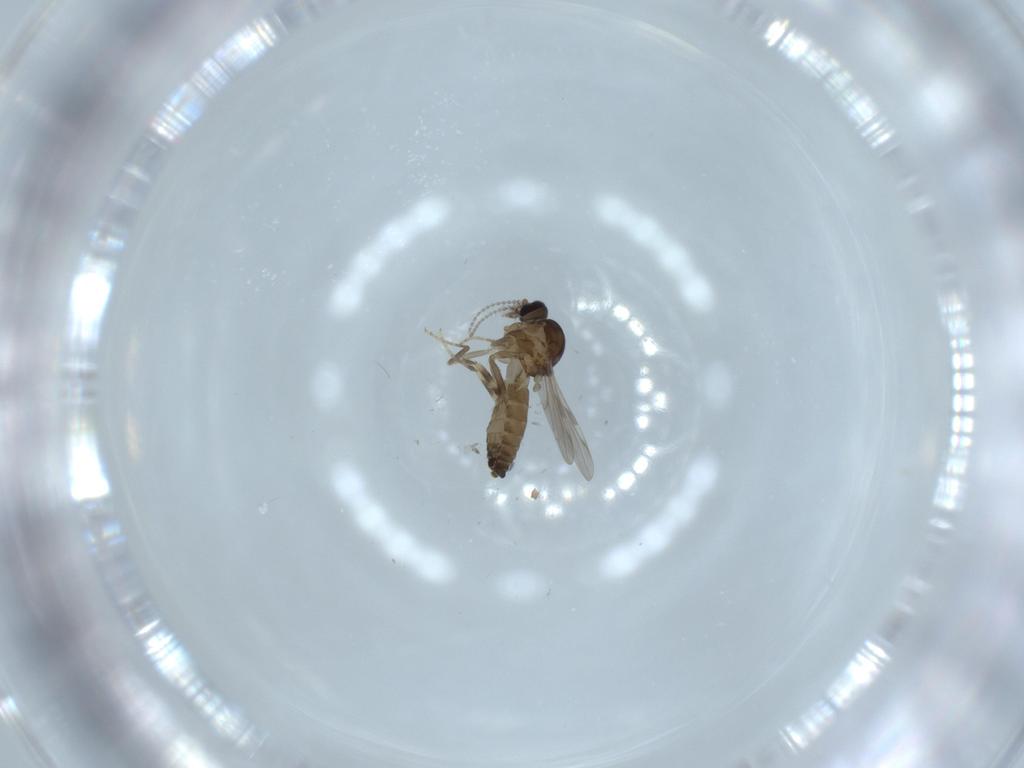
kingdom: Animalia
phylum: Arthropoda
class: Insecta
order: Diptera
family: Ceratopogonidae
